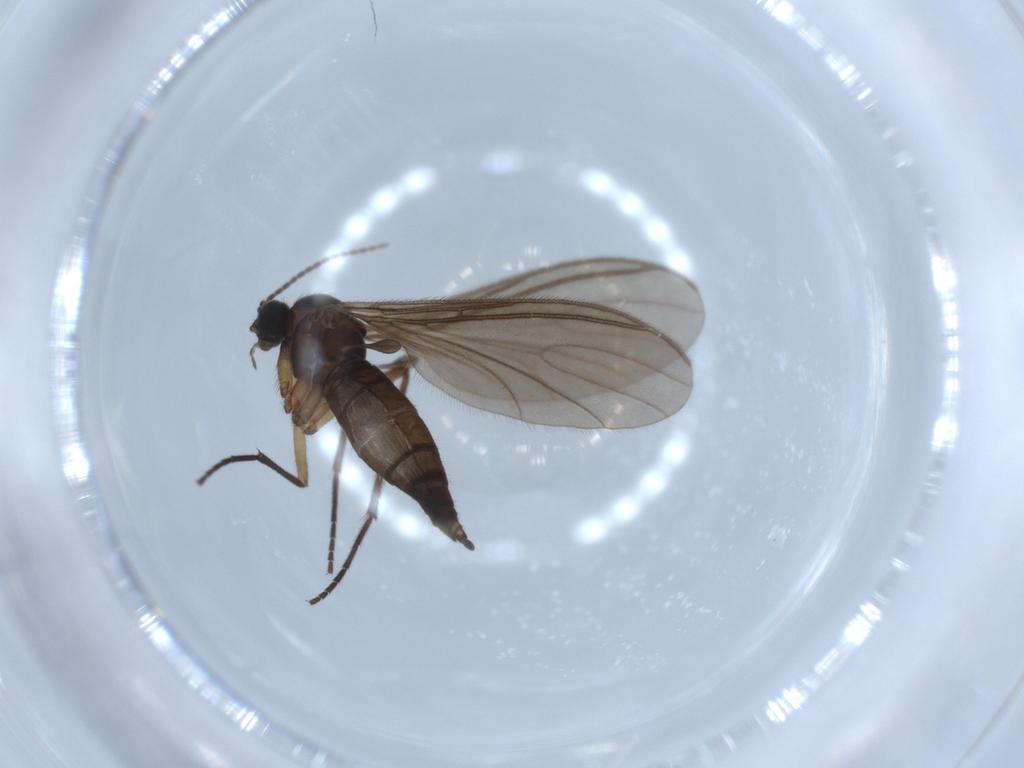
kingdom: Animalia
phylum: Arthropoda
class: Insecta
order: Diptera
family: Sciaridae
